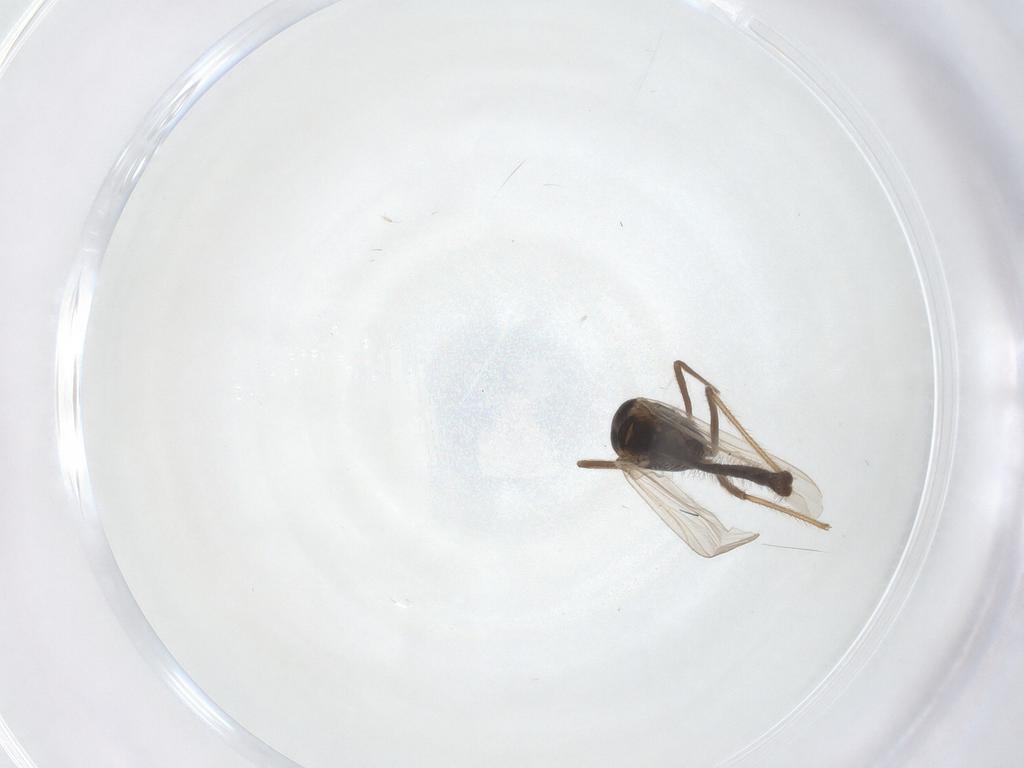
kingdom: Animalia
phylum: Arthropoda
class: Insecta
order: Diptera
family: Chironomidae
